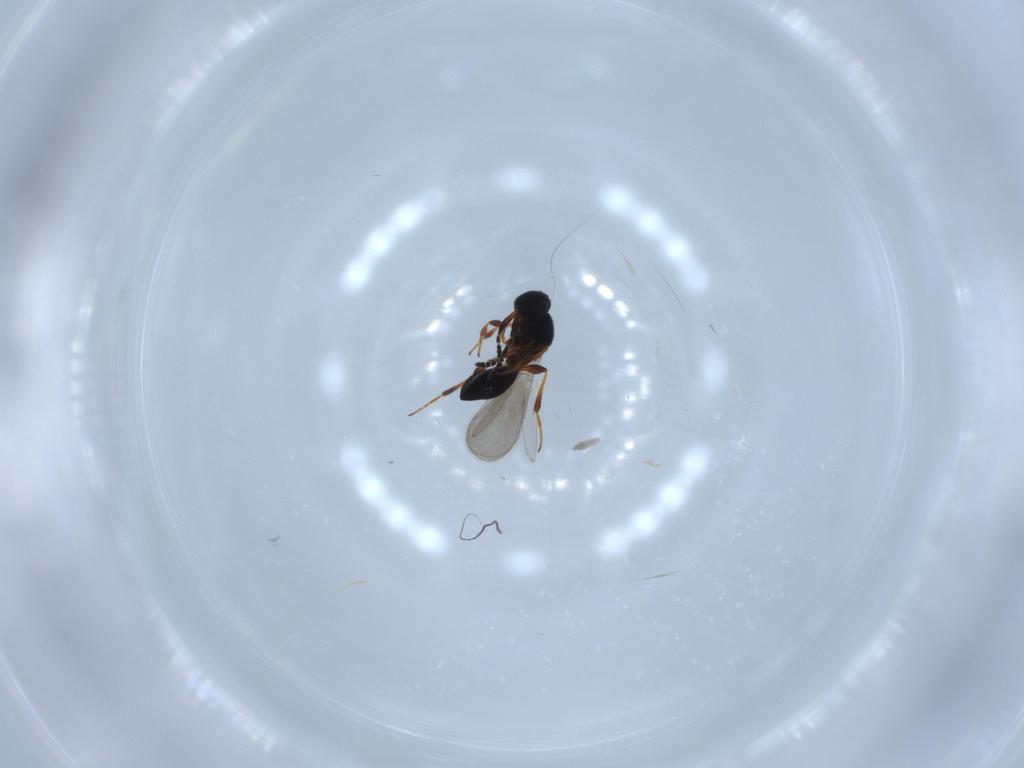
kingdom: Animalia
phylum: Arthropoda
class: Insecta
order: Hymenoptera
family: Platygastridae
